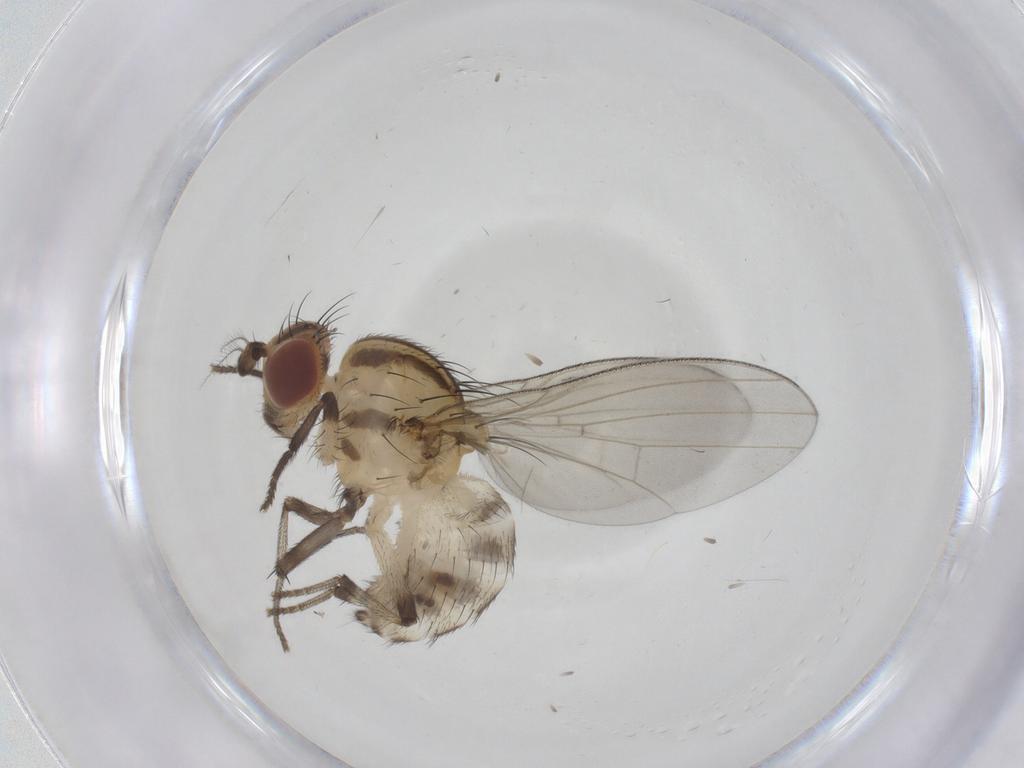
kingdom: Animalia
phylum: Arthropoda
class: Insecta
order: Diptera
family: Lauxaniidae
